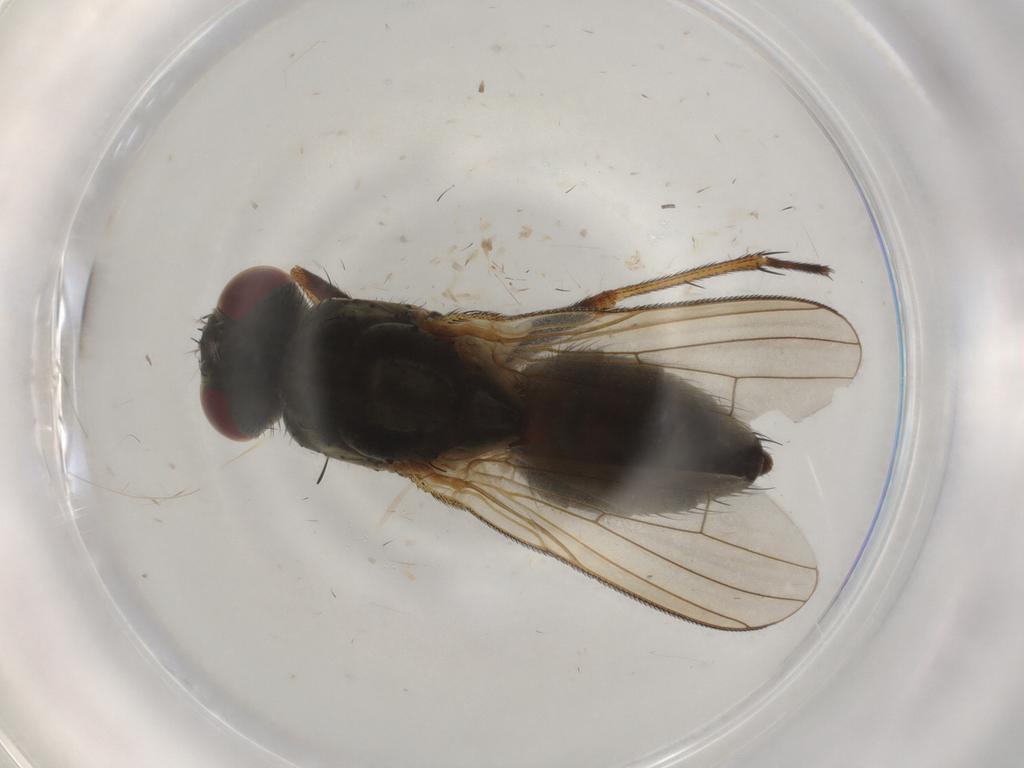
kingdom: Animalia
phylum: Arthropoda
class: Insecta
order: Diptera
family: Muscidae
